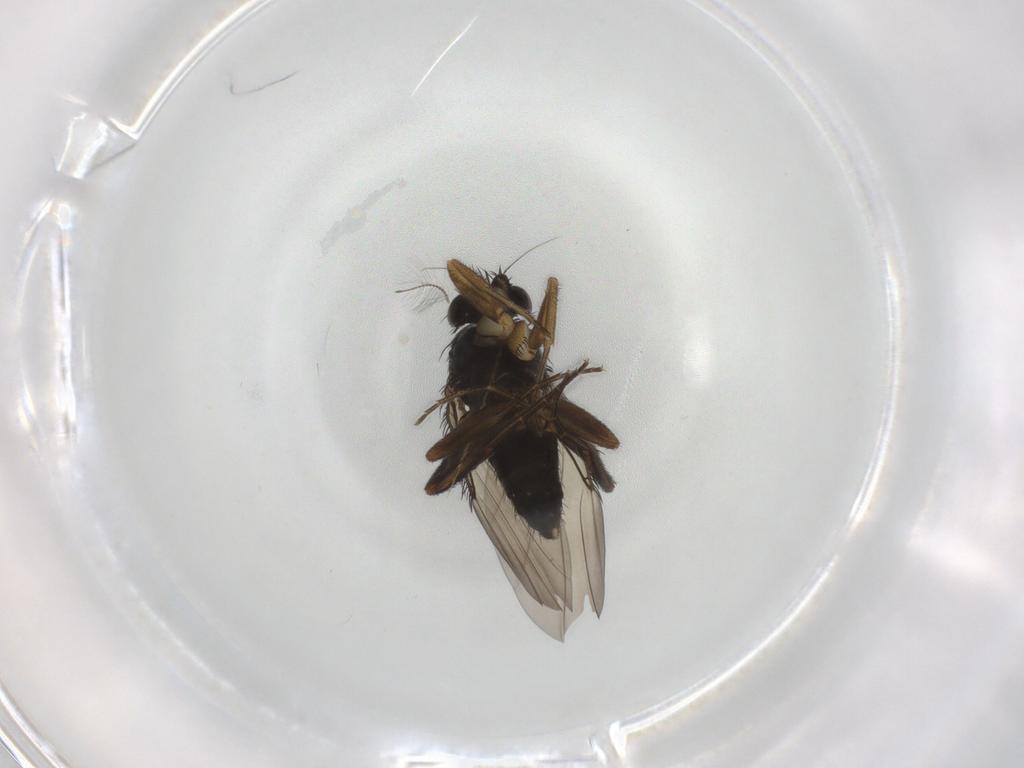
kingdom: Animalia
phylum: Arthropoda
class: Insecta
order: Diptera
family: Phoridae
